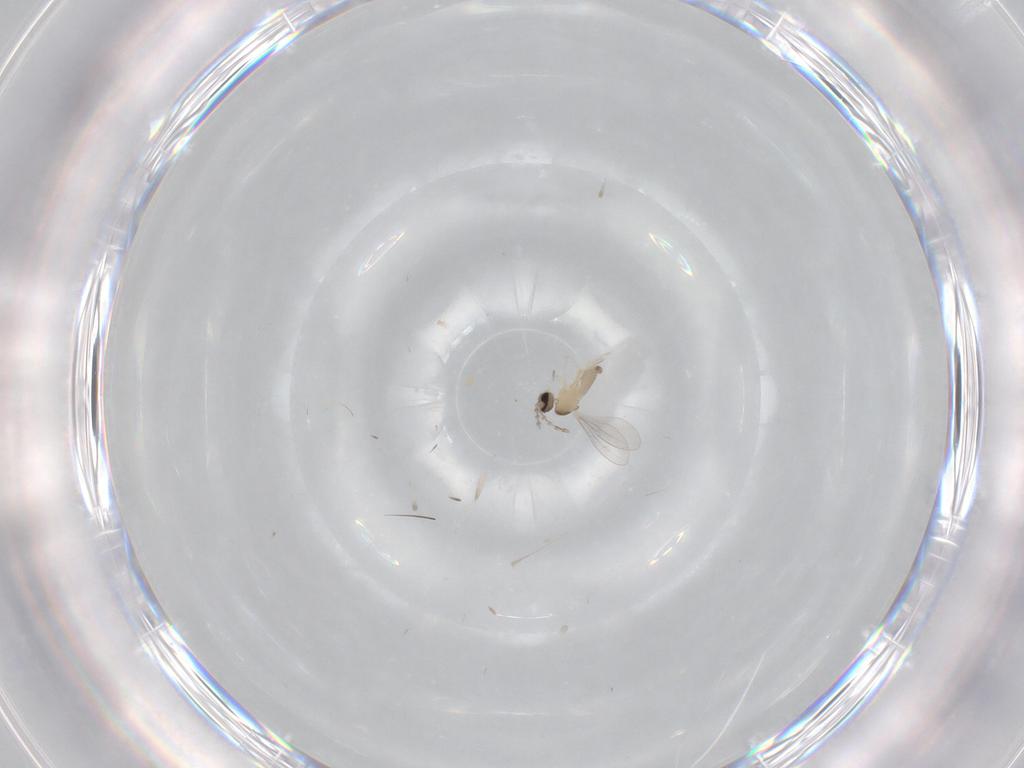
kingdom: Animalia
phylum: Arthropoda
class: Insecta
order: Diptera
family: Cecidomyiidae
